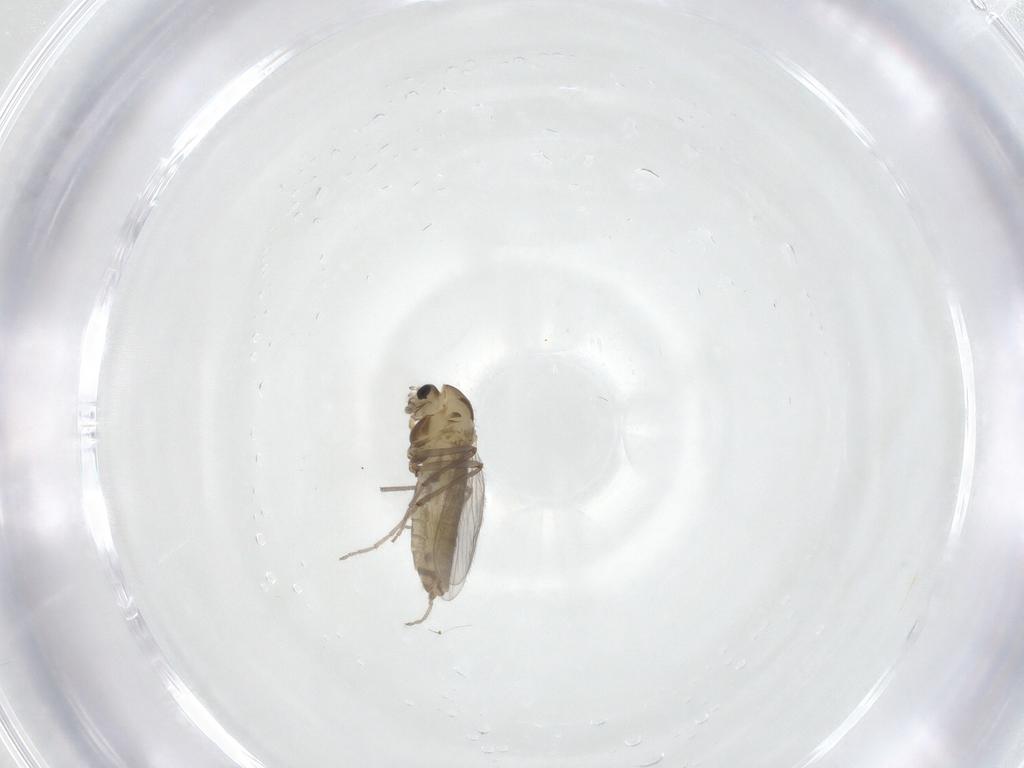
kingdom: Animalia
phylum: Arthropoda
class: Insecta
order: Diptera
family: Chironomidae
